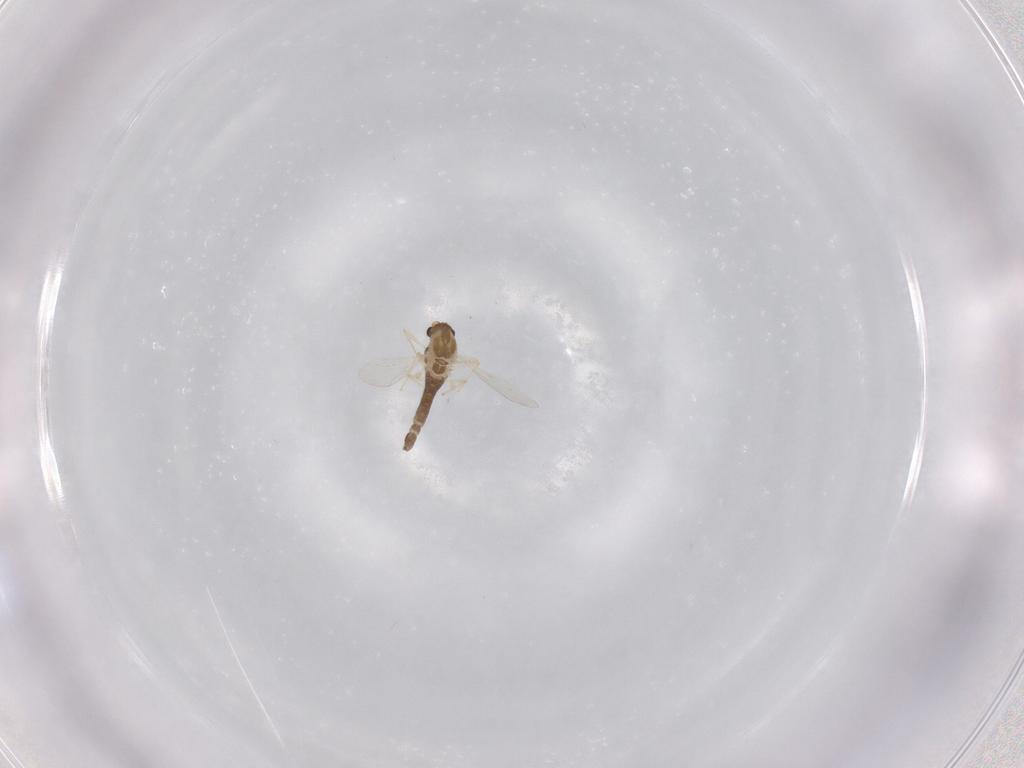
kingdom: Animalia
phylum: Arthropoda
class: Insecta
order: Diptera
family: Chironomidae
